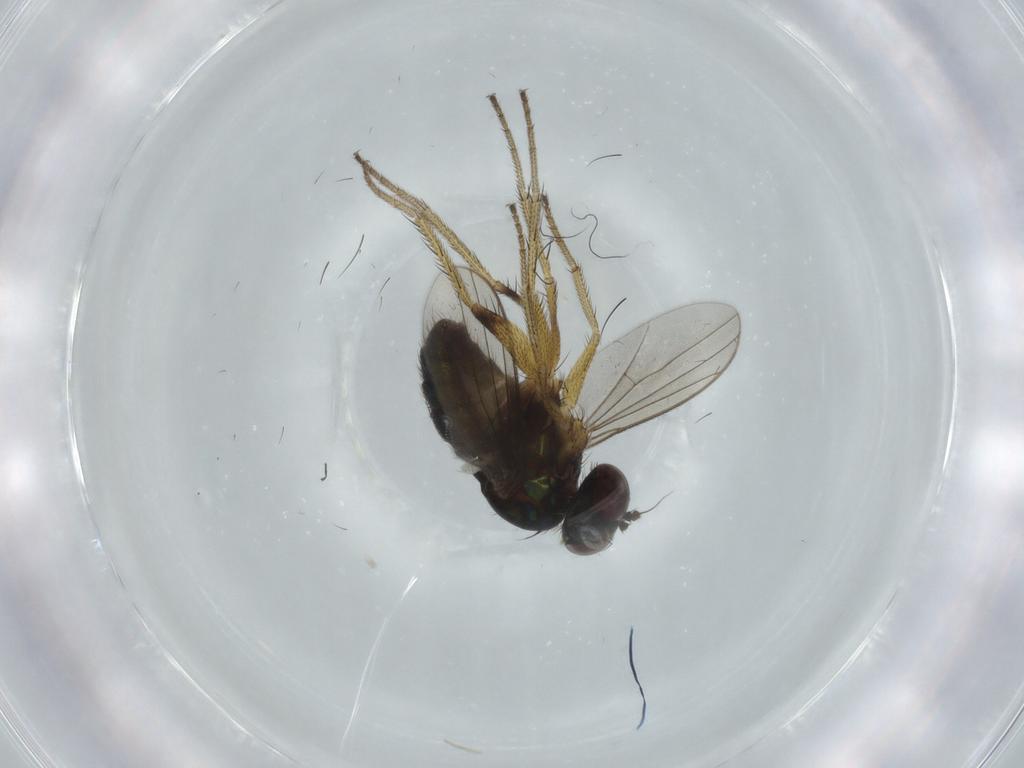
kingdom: Animalia
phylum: Arthropoda
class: Insecta
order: Diptera
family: Dolichopodidae
